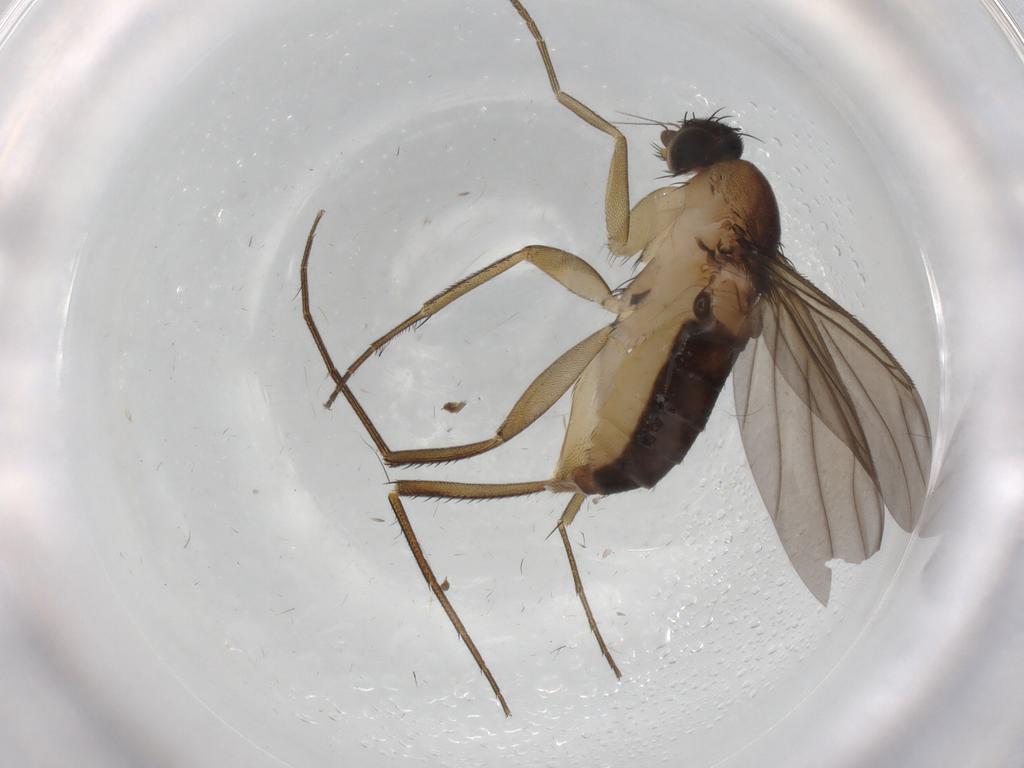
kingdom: Animalia
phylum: Arthropoda
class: Insecta
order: Diptera
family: Phoridae
